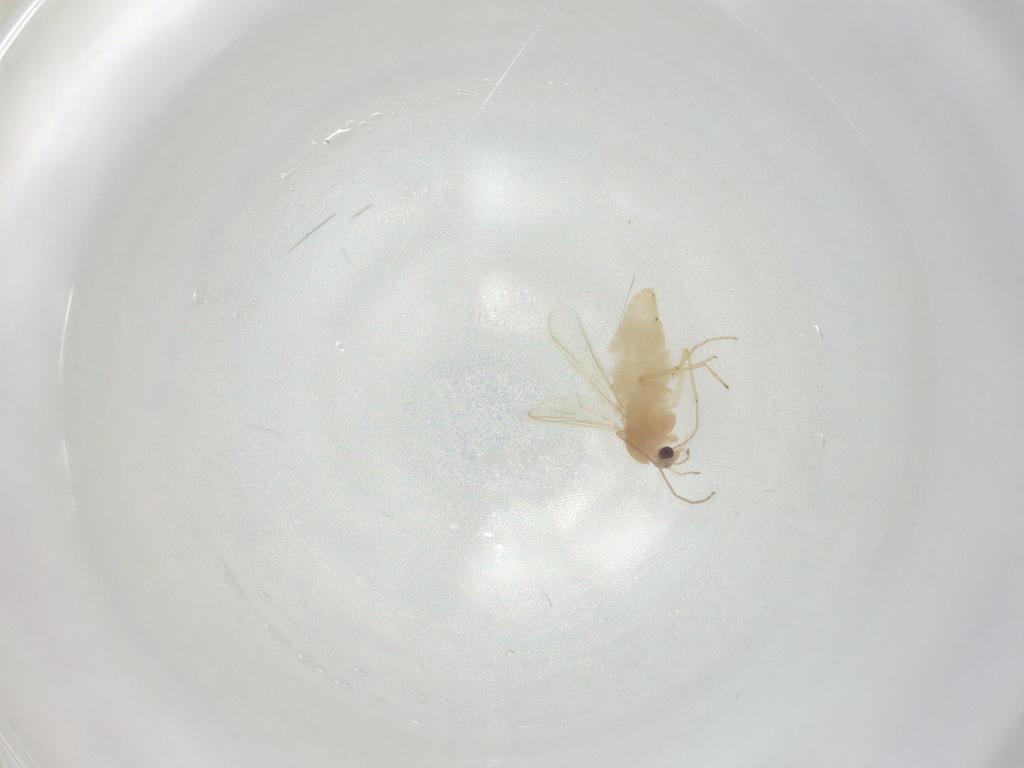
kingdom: Animalia
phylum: Arthropoda
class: Insecta
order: Diptera
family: Chironomidae
